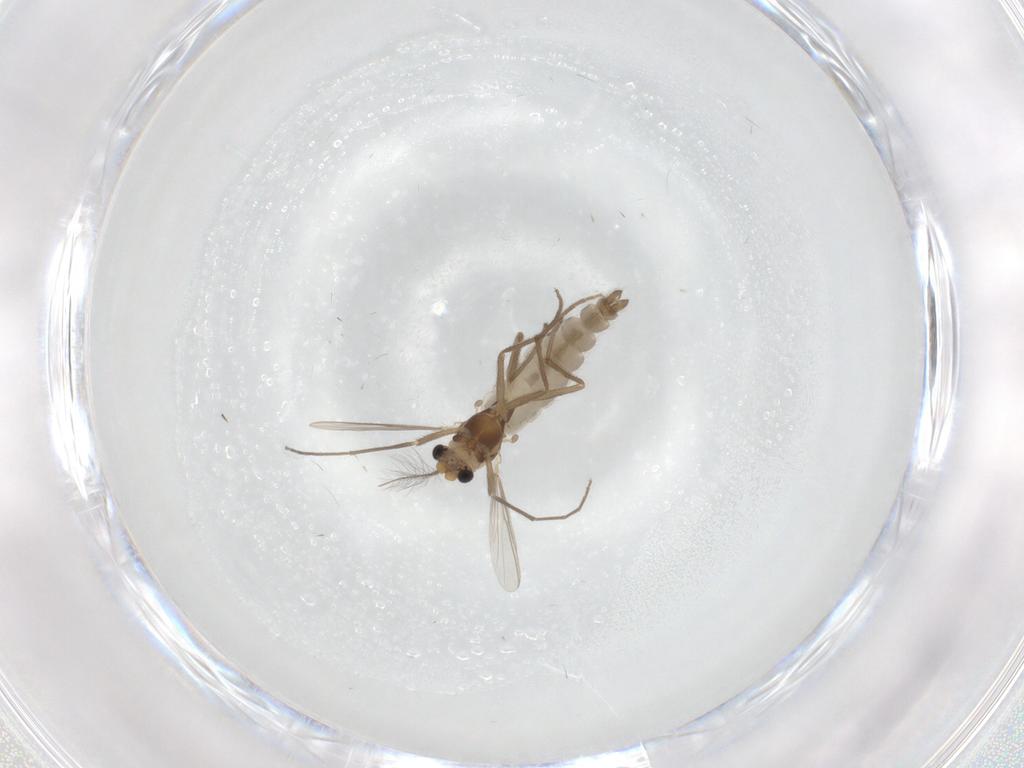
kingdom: Animalia
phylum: Arthropoda
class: Insecta
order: Diptera
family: Chironomidae
